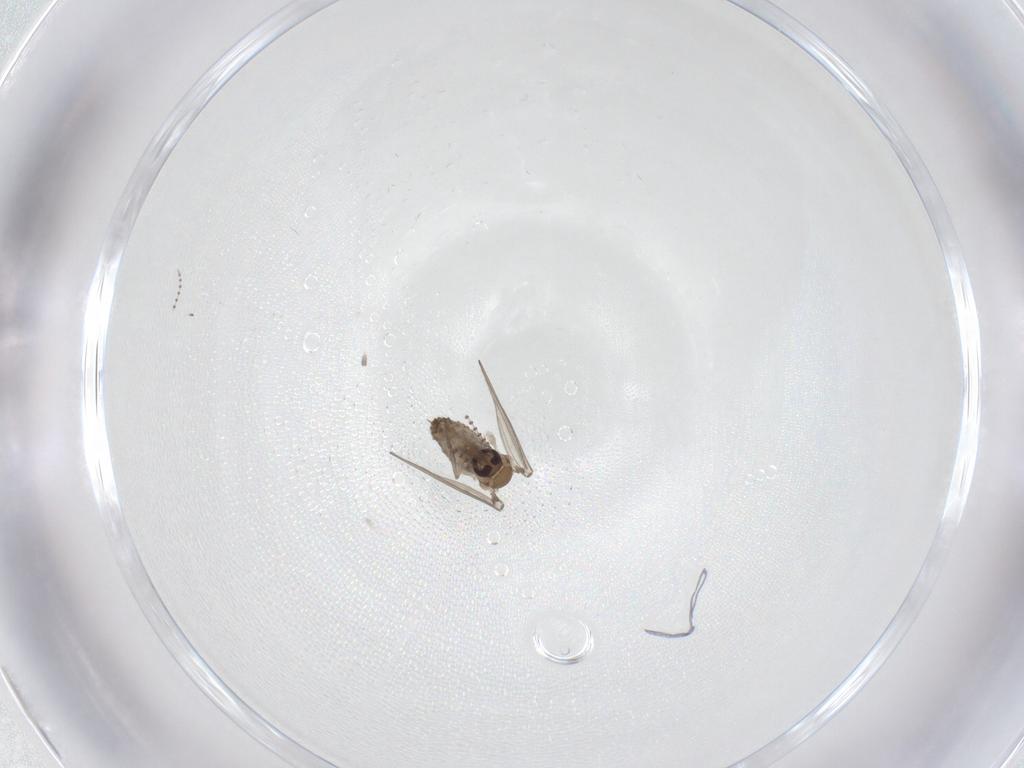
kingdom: Animalia
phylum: Arthropoda
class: Insecta
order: Diptera
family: Psychodidae
